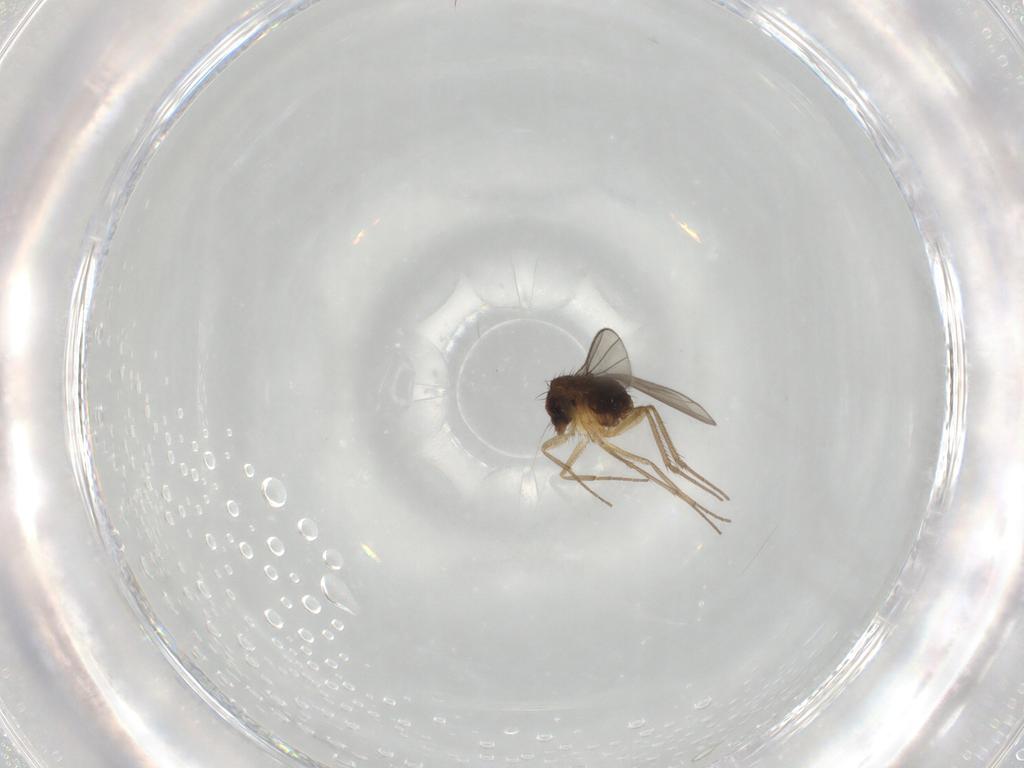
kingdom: Animalia
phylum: Arthropoda
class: Insecta
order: Diptera
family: Dolichopodidae
